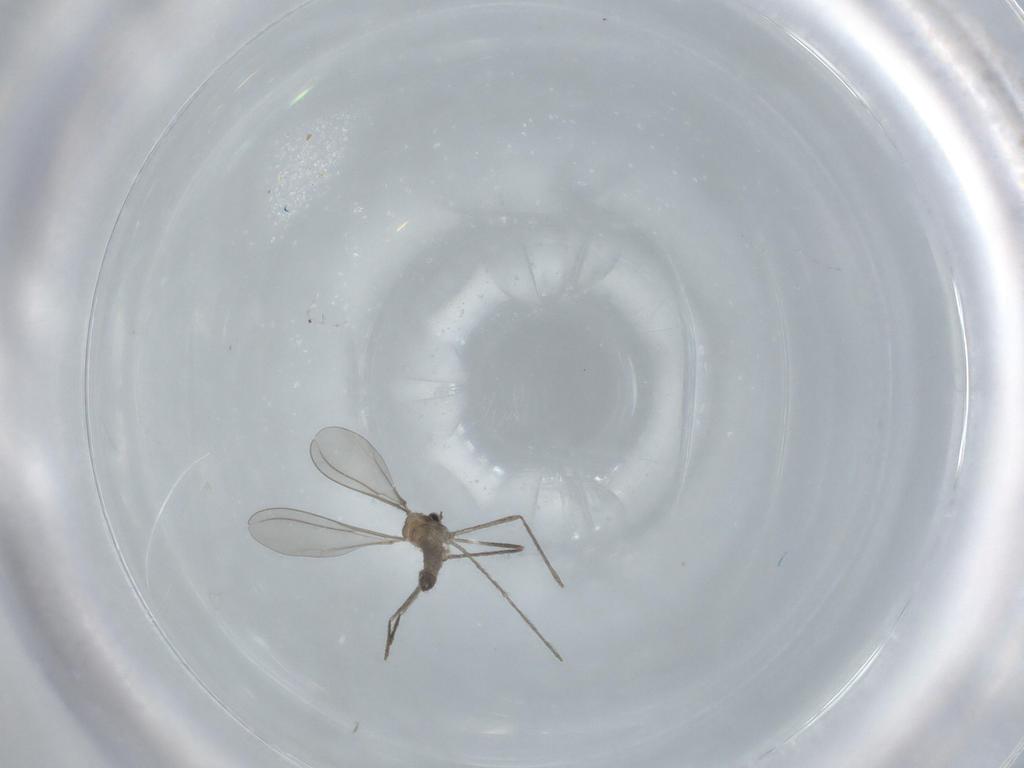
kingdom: Animalia
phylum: Arthropoda
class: Insecta
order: Diptera
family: Cecidomyiidae
